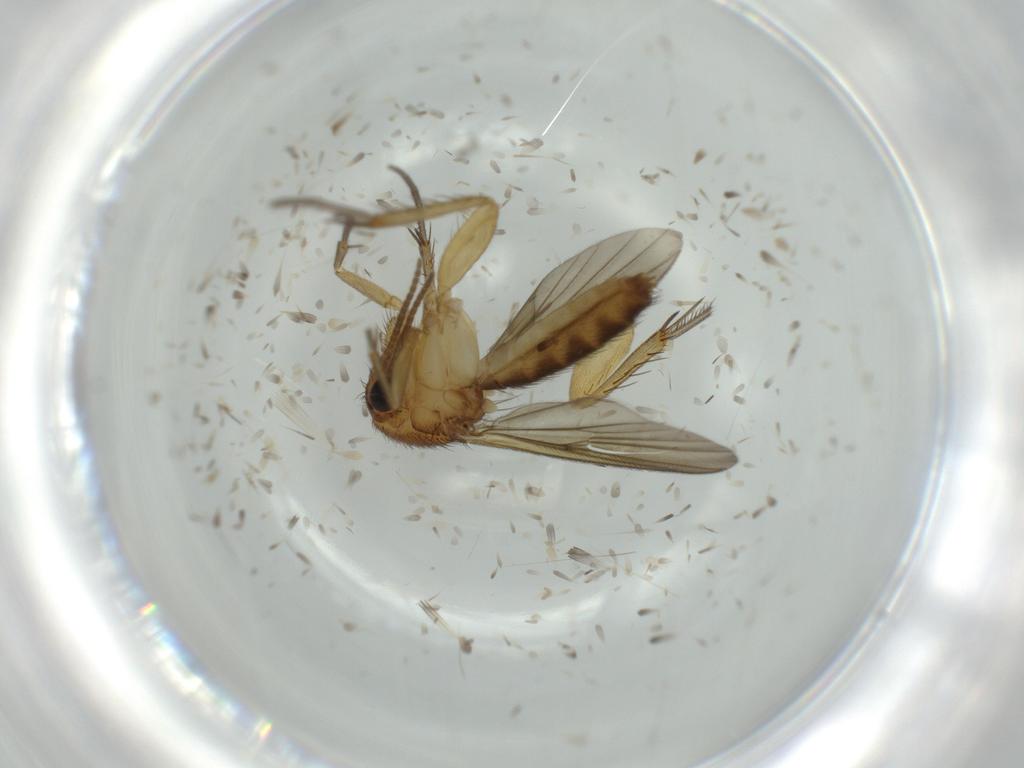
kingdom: Animalia
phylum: Arthropoda
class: Insecta
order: Diptera
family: Mycetophilidae
